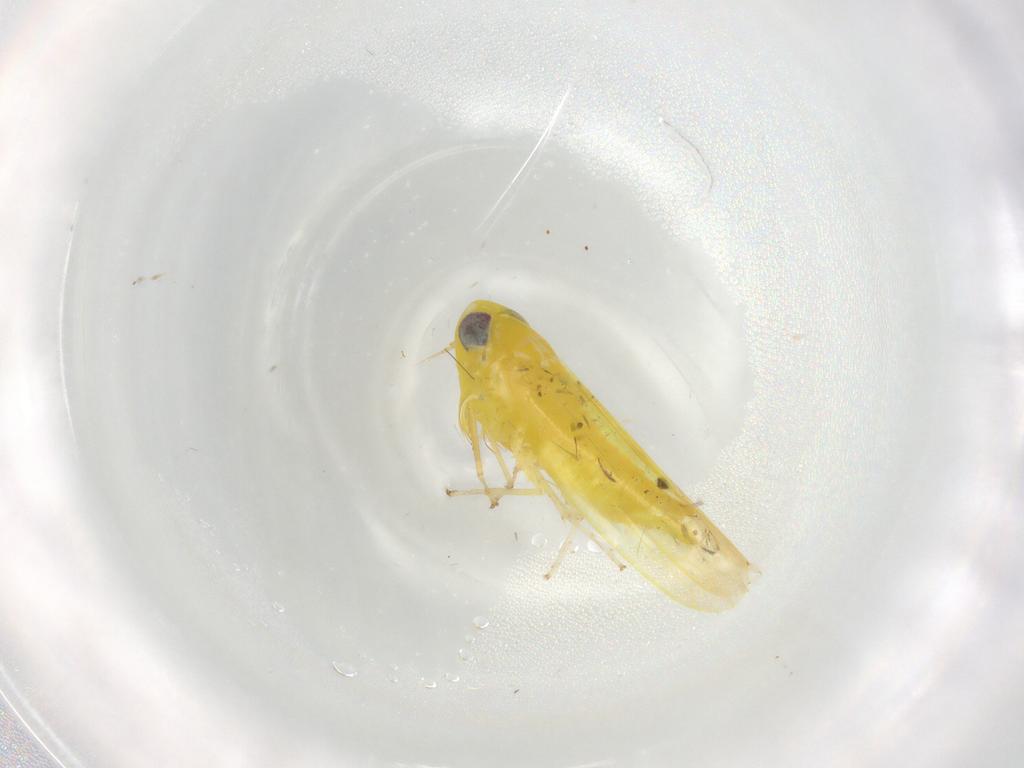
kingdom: Animalia
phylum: Arthropoda
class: Insecta
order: Hemiptera
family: Cicadellidae
